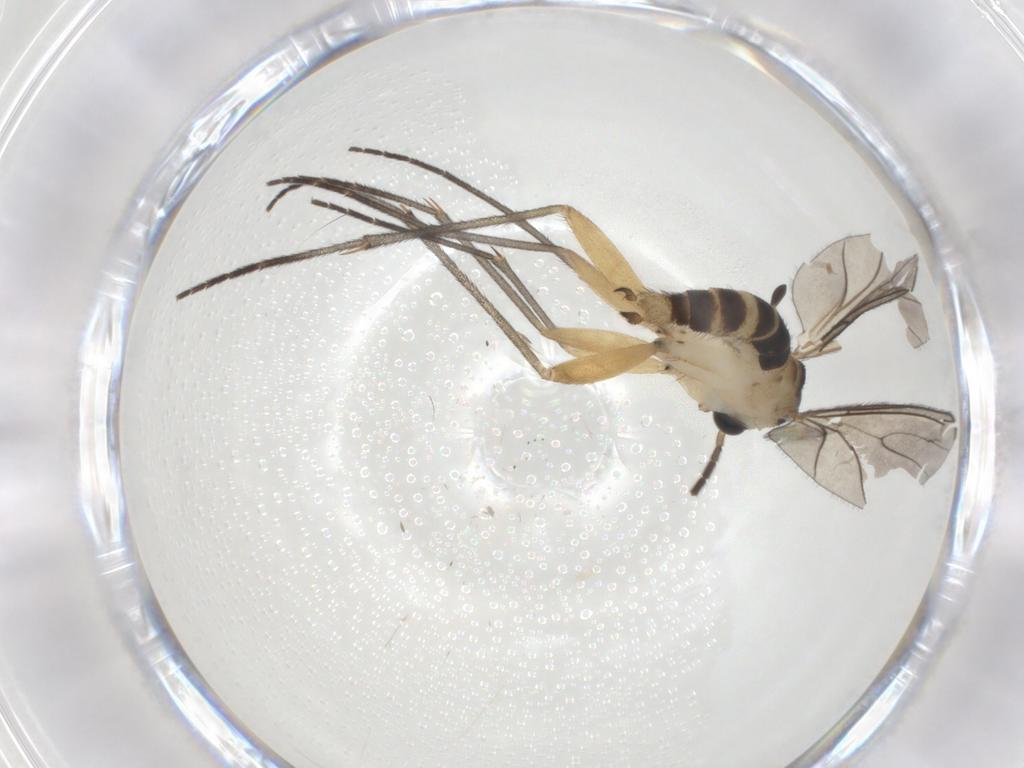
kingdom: Animalia
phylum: Arthropoda
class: Insecta
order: Diptera
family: Sciaridae
